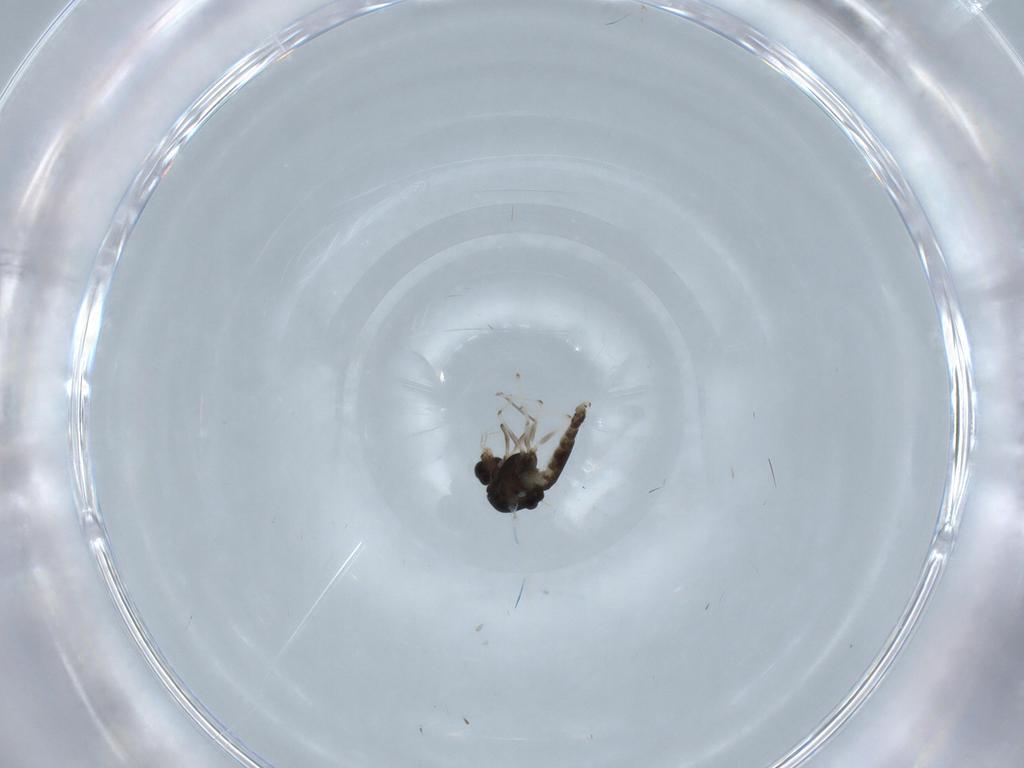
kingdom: Animalia
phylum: Arthropoda
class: Insecta
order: Diptera
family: Chironomidae
